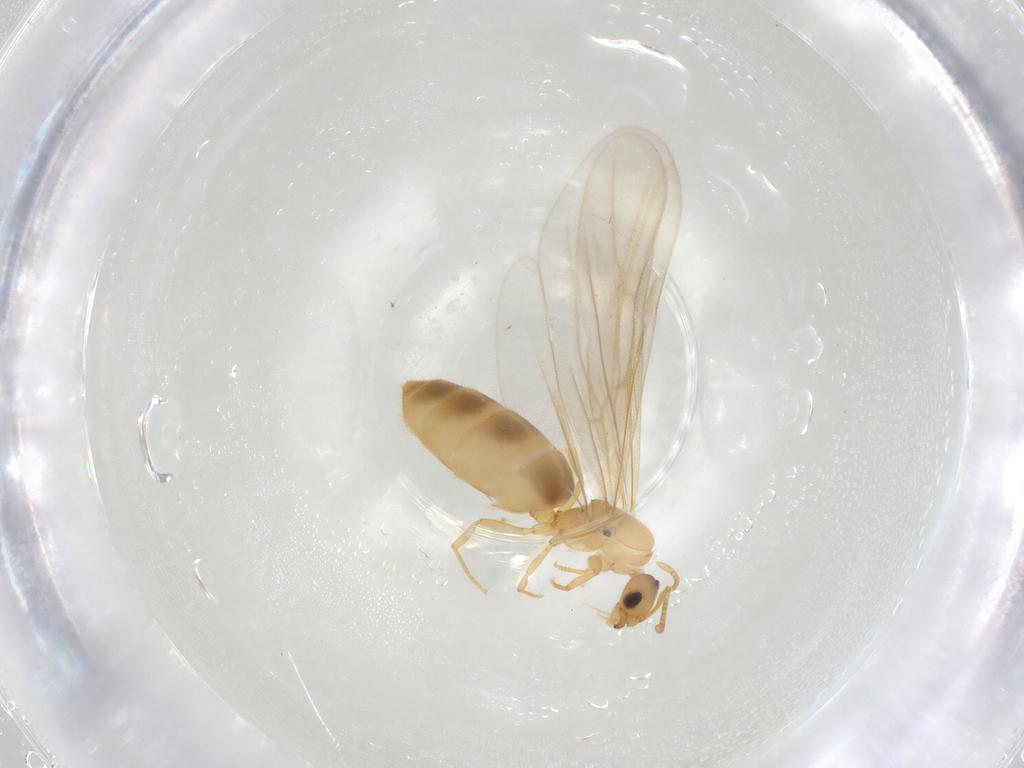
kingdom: Animalia
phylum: Arthropoda
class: Insecta
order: Hymenoptera
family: Formicidae
